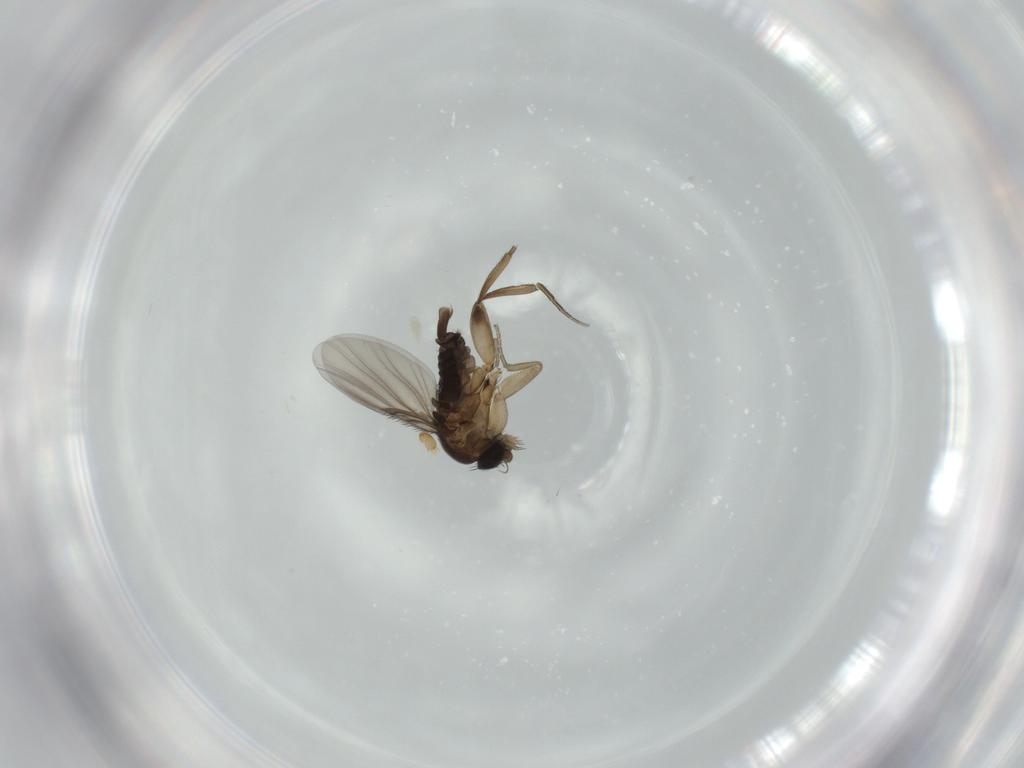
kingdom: Animalia
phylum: Arthropoda
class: Insecta
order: Diptera
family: Phoridae
